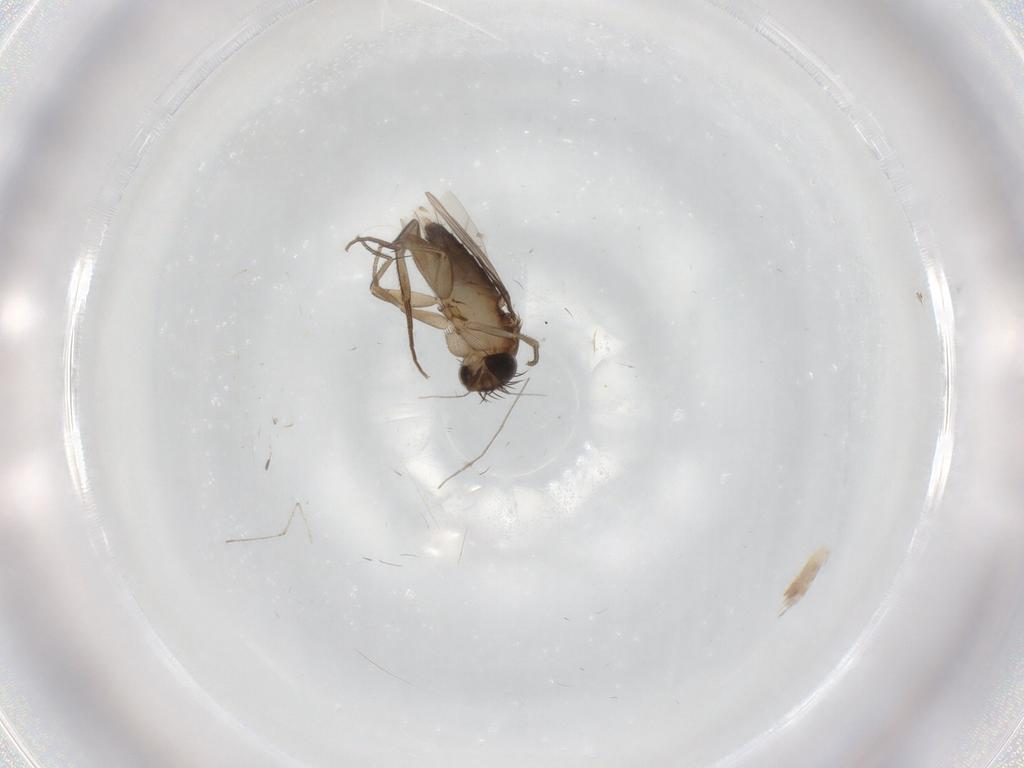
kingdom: Animalia
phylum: Arthropoda
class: Insecta
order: Diptera
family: Phoridae
